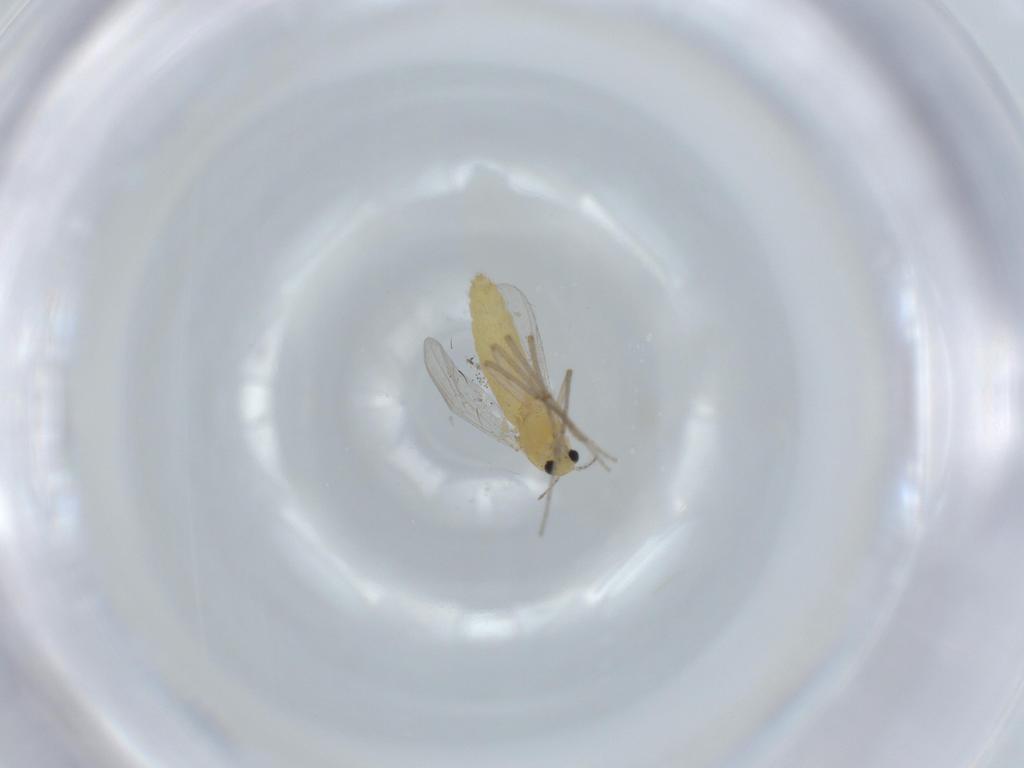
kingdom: Animalia
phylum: Arthropoda
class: Insecta
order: Diptera
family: Chironomidae
